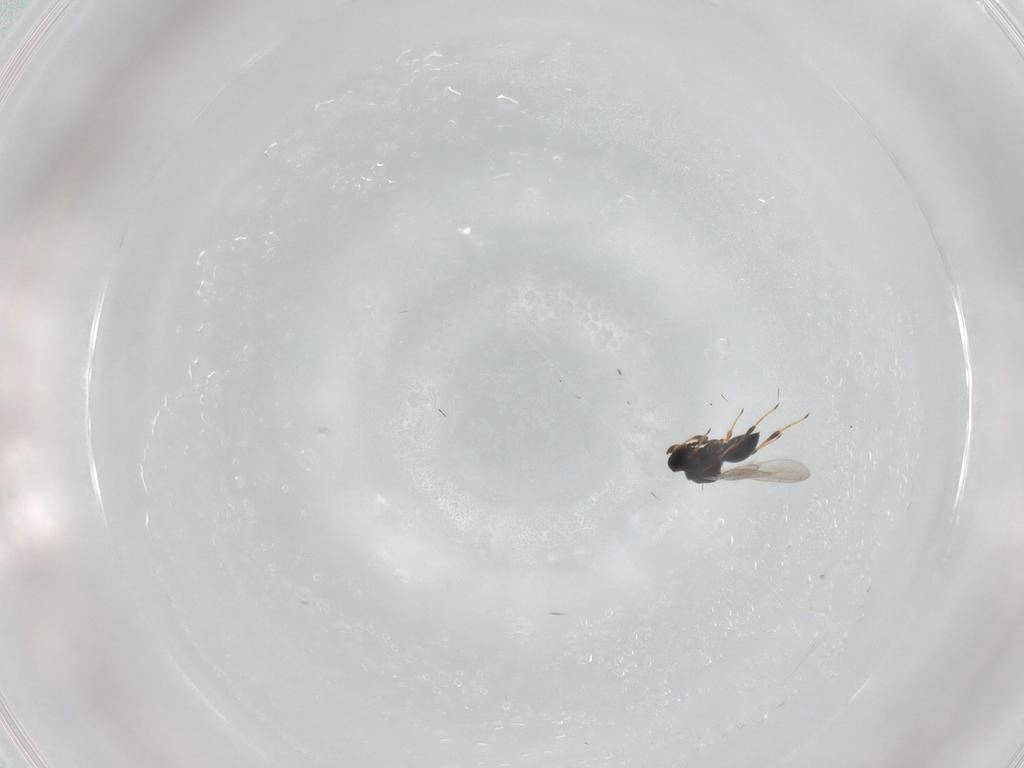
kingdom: Animalia
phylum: Arthropoda
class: Insecta
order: Hymenoptera
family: Platygastridae
